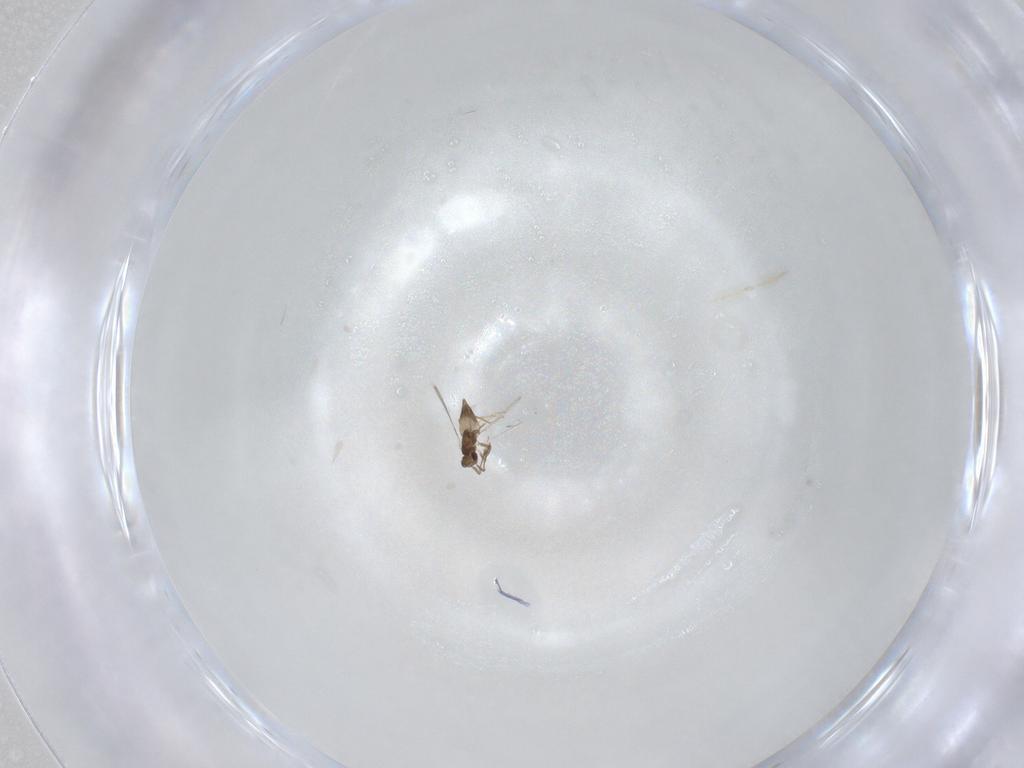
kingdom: Animalia
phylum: Arthropoda
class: Insecta
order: Hymenoptera
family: Mymaridae
